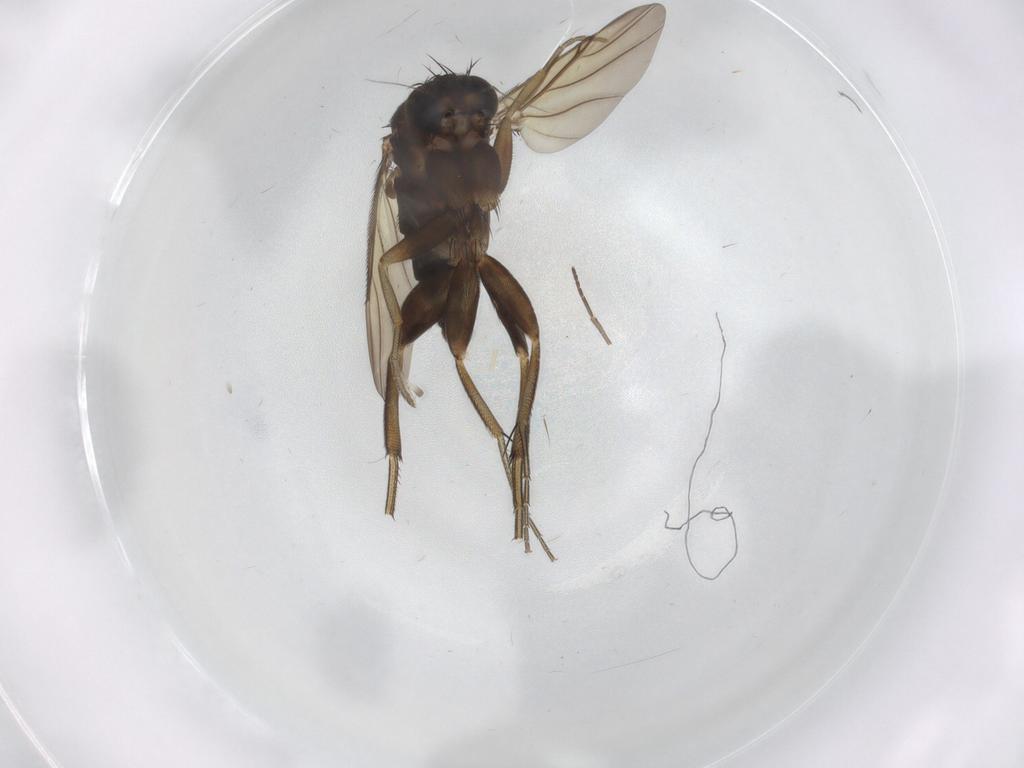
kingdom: Animalia
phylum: Arthropoda
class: Insecta
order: Diptera
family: Phoridae
